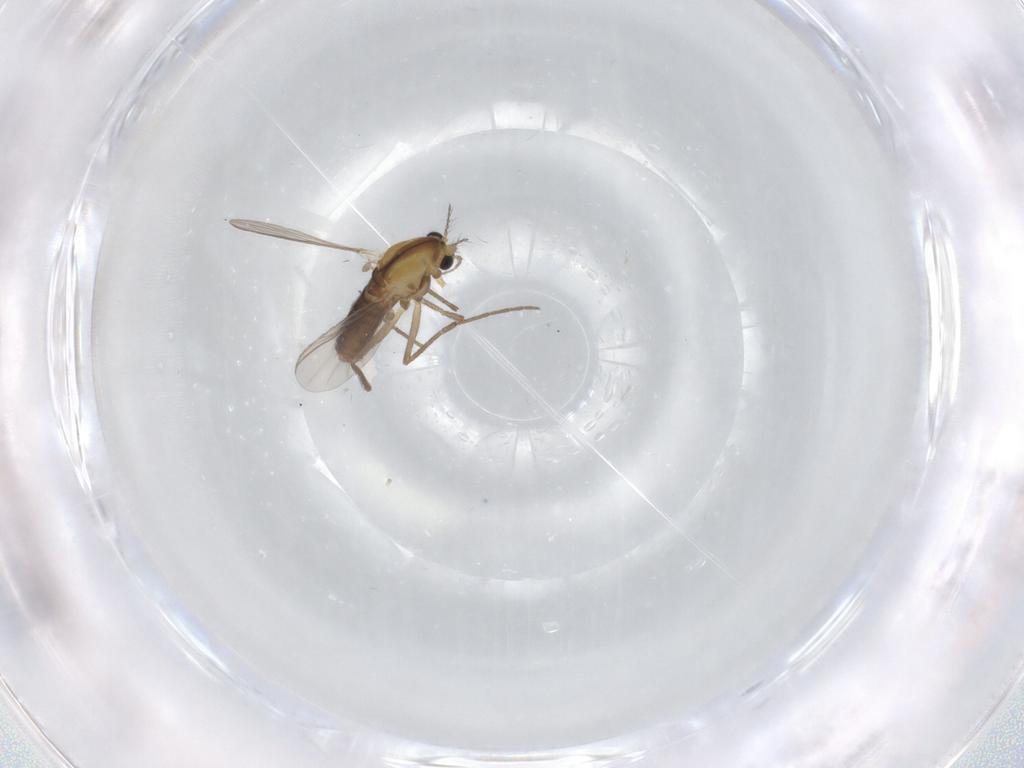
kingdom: Animalia
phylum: Arthropoda
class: Insecta
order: Diptera
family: Chironomidae
